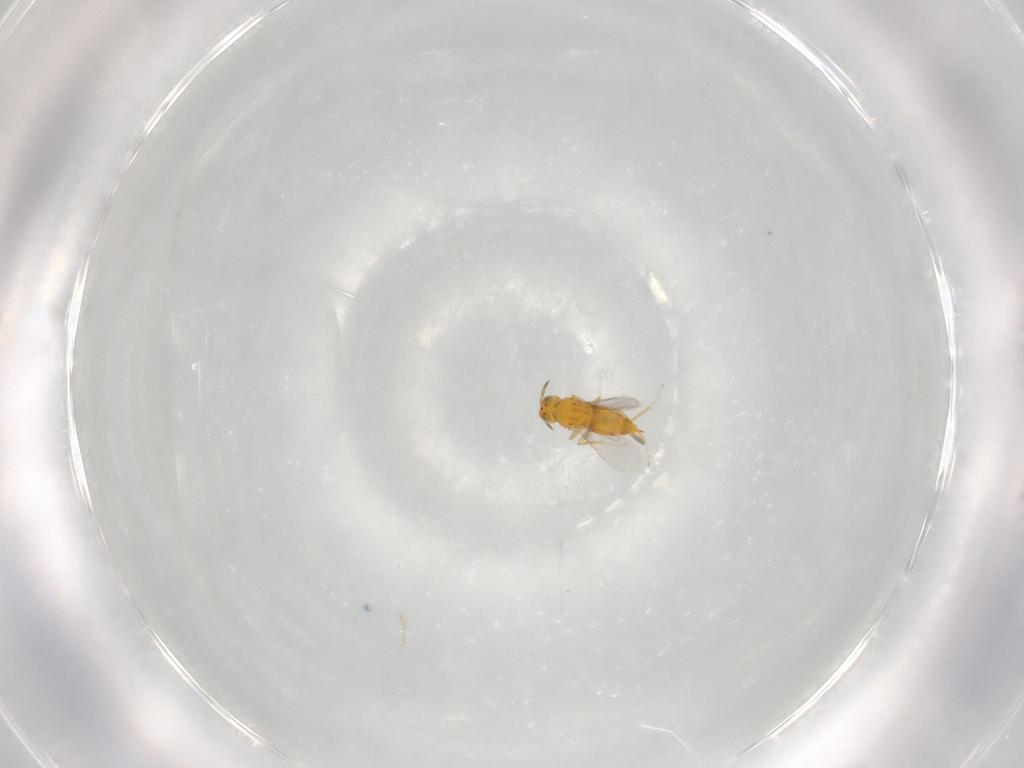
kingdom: Animalia
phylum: Arthropoda
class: Insecta
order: Hymenoptera
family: Aphelinidae
